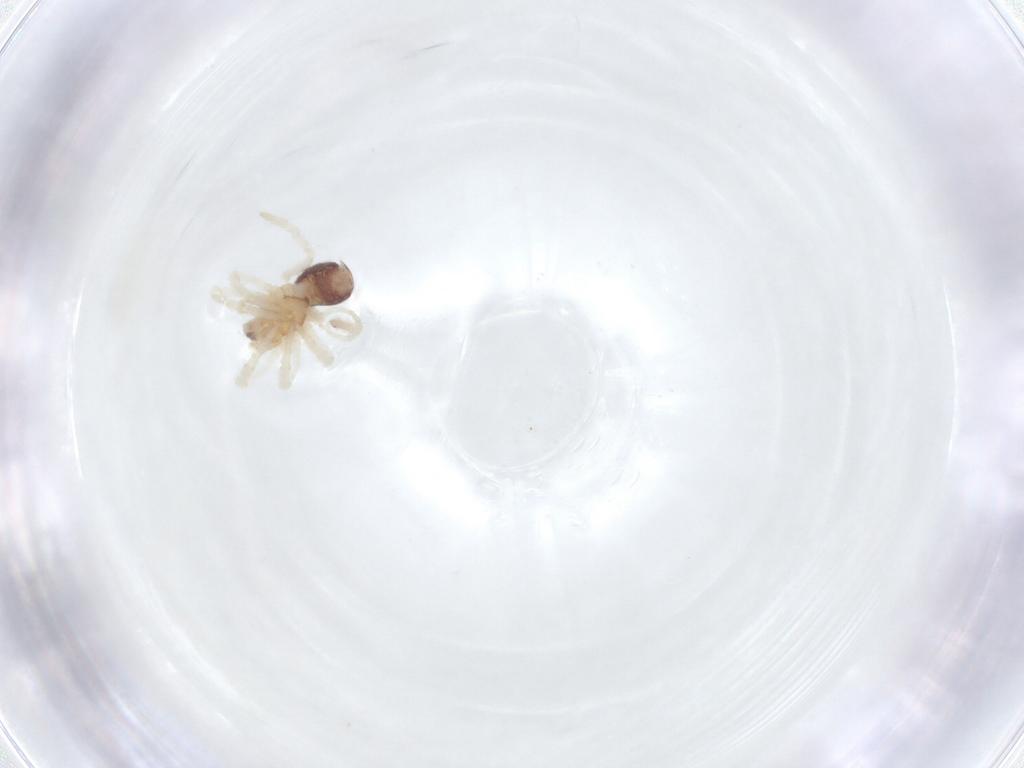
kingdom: Animalia
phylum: Arthropoda
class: Arachnida
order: Araneae
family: Theridiidae
